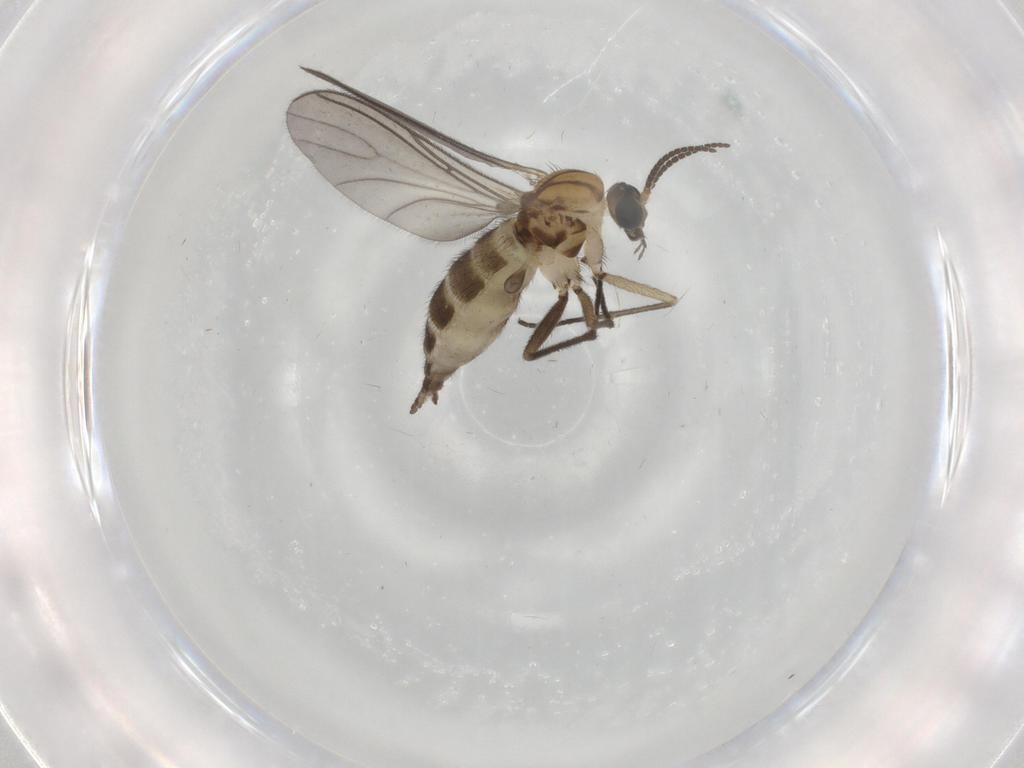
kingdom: Animalia
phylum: Arthropoda
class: Insecta
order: Diptera
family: Sciaridae
